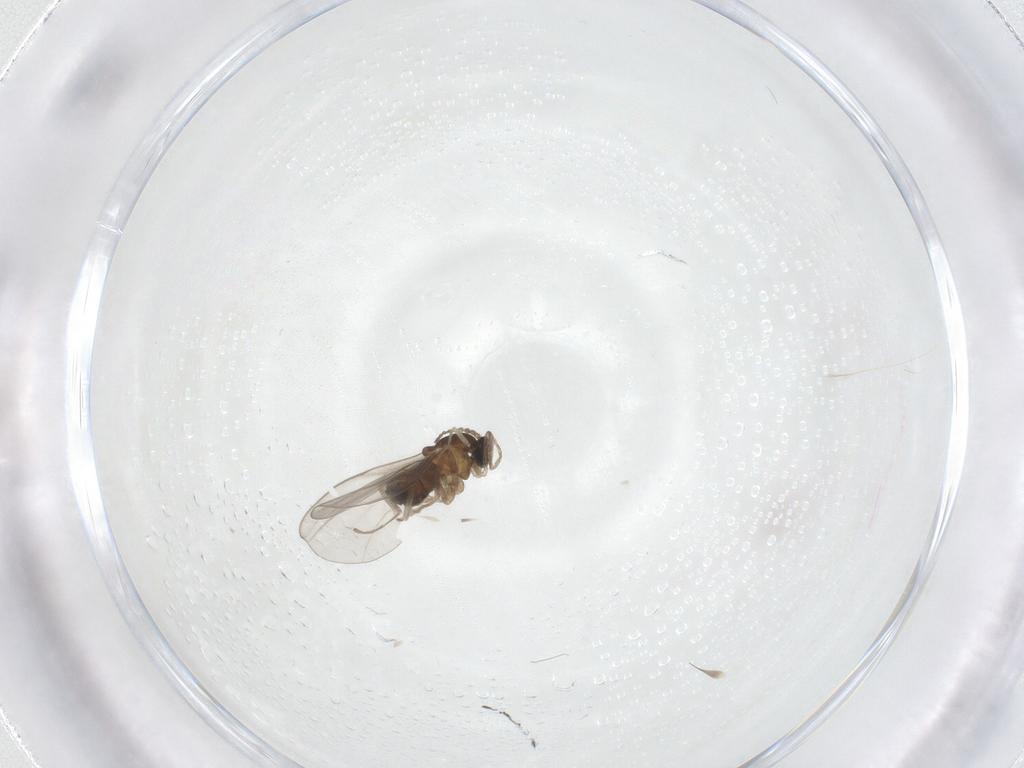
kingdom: Animalia
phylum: Arthropoda
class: Insecta
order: Diptera
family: Cecidomyiidae
